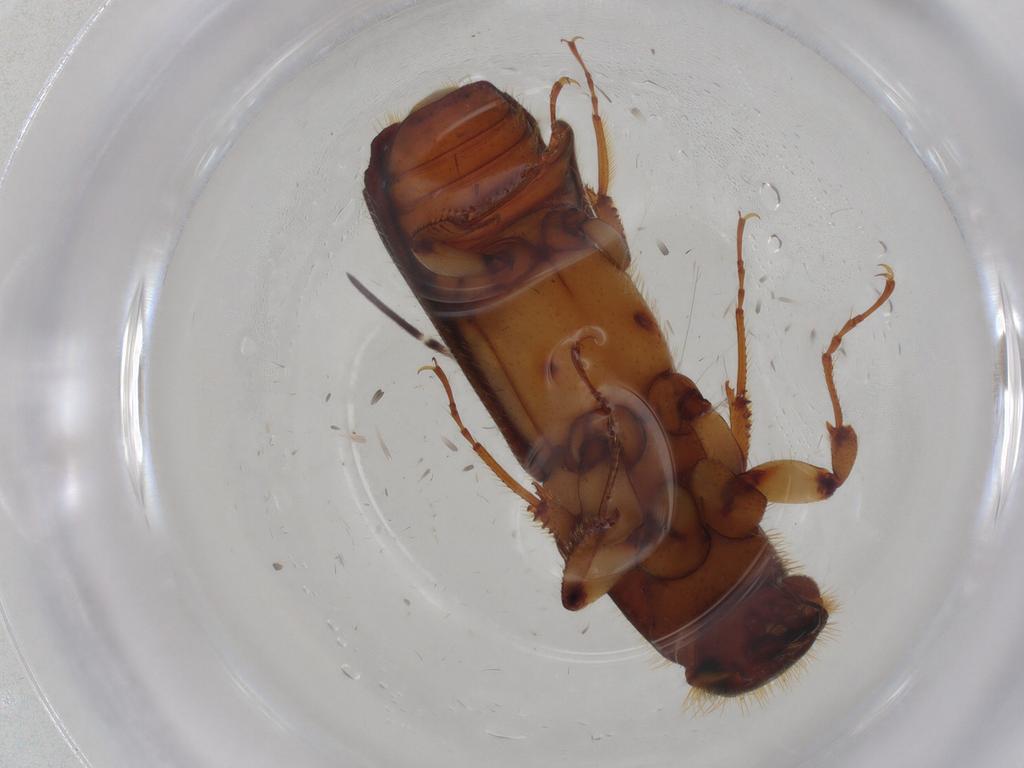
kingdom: Animalia
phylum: Arthropoda
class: Insecta
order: Coleoptera
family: Curculionidae
